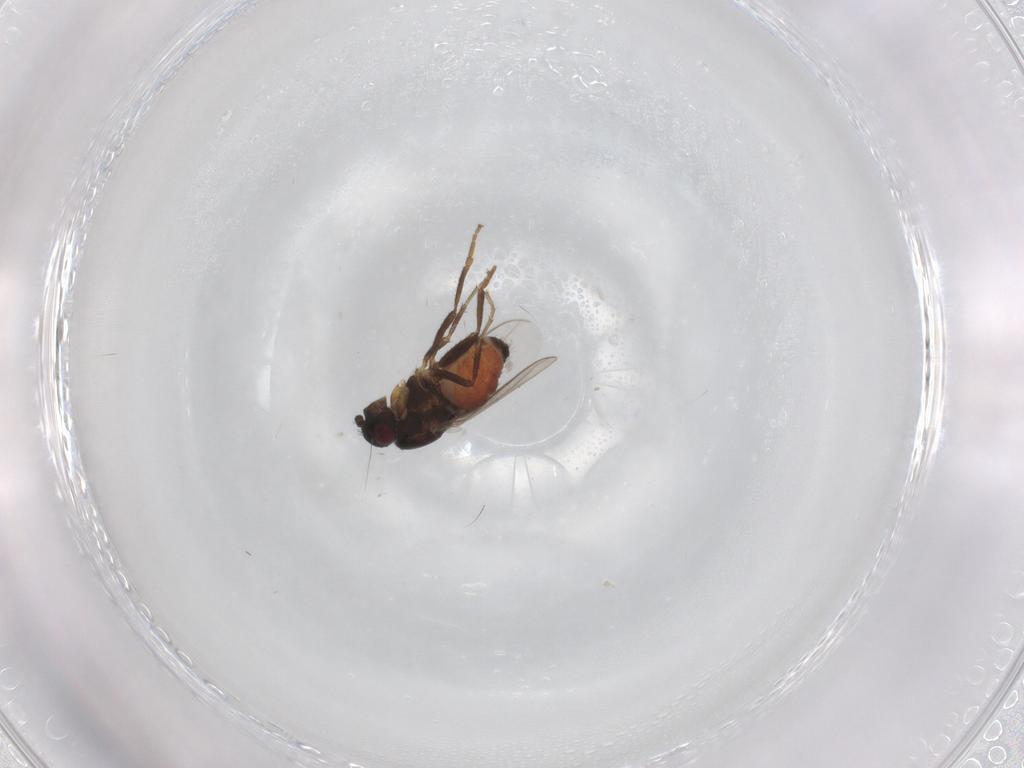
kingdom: Animalia
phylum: Arthropoda
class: Insecta
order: Diptera
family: Sphaeroceridae
